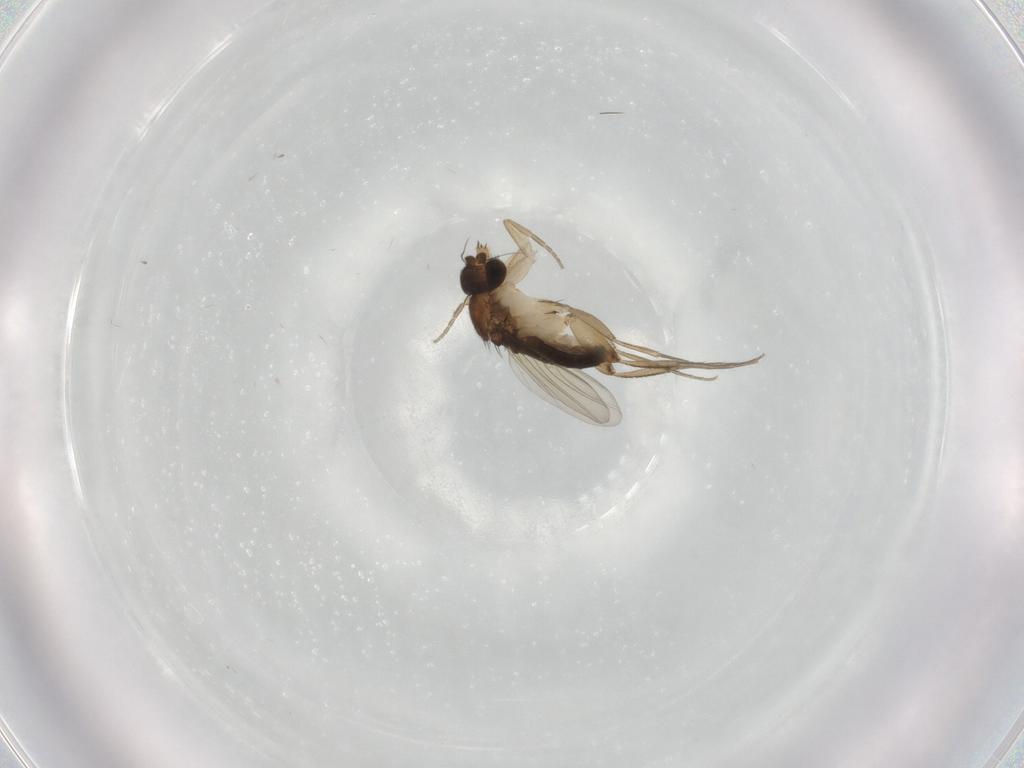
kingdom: Animalia
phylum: Arthropoda
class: Insecta
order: Diptera
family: Phoridae
